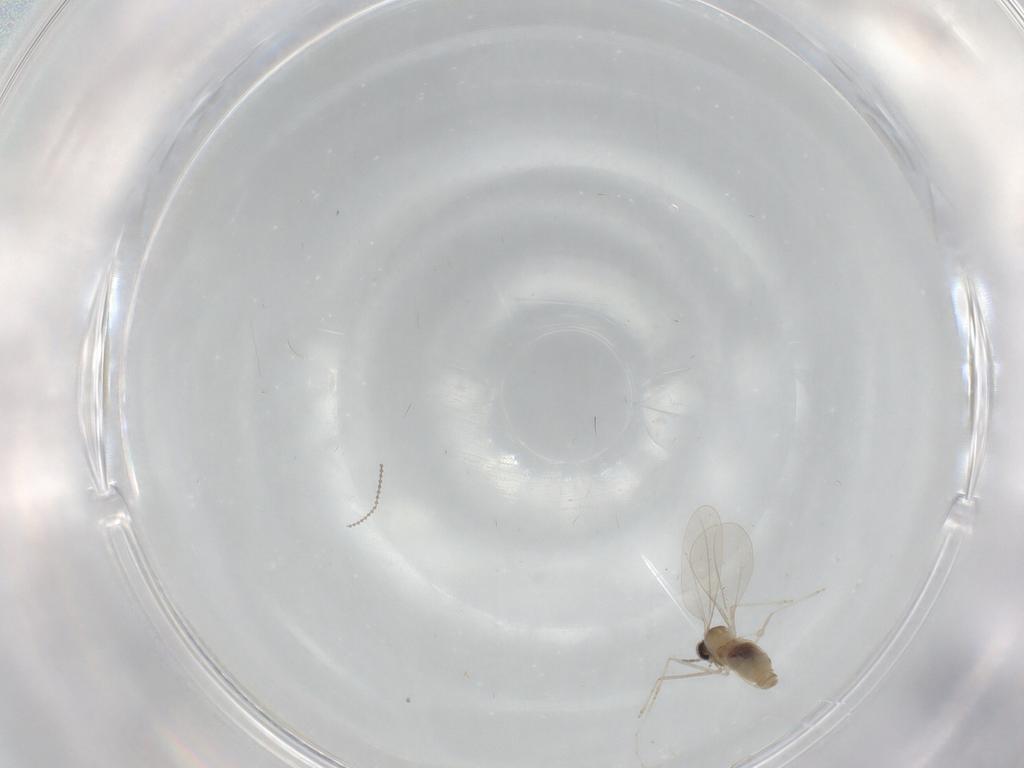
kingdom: Animalia
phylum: Arthropoda
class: Insecta
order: Diptera
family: Cecidomyiidae
